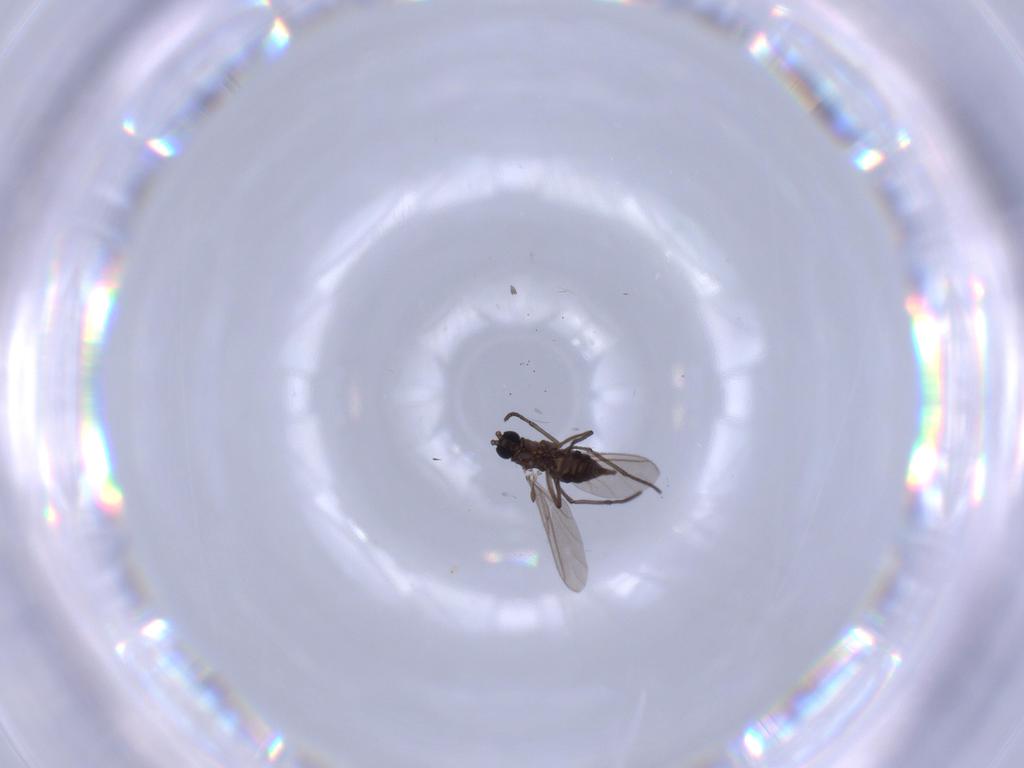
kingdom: Animalia
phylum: Arthropoda
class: Insecta
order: Diptera
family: Sciaridae
